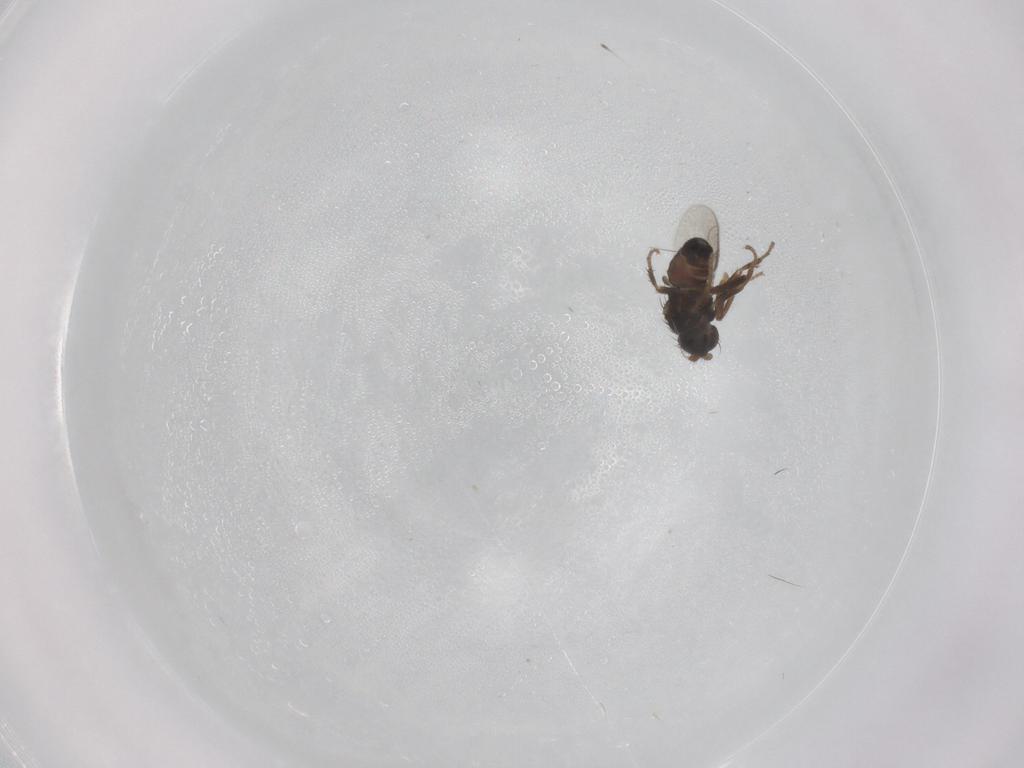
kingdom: Animalia
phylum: Arthropoda
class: Insecta
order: Diptera
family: Sphaeroceridae
